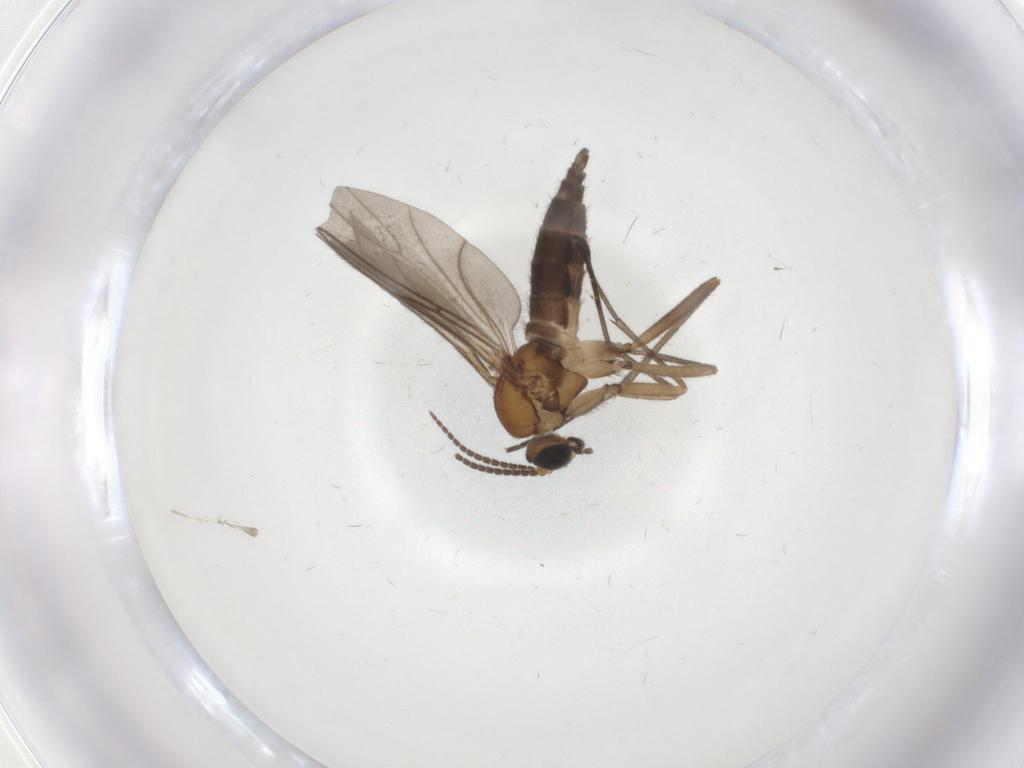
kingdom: Animalia
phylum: Arthropoda
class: Insecta
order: Diptera
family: Sciaridae
